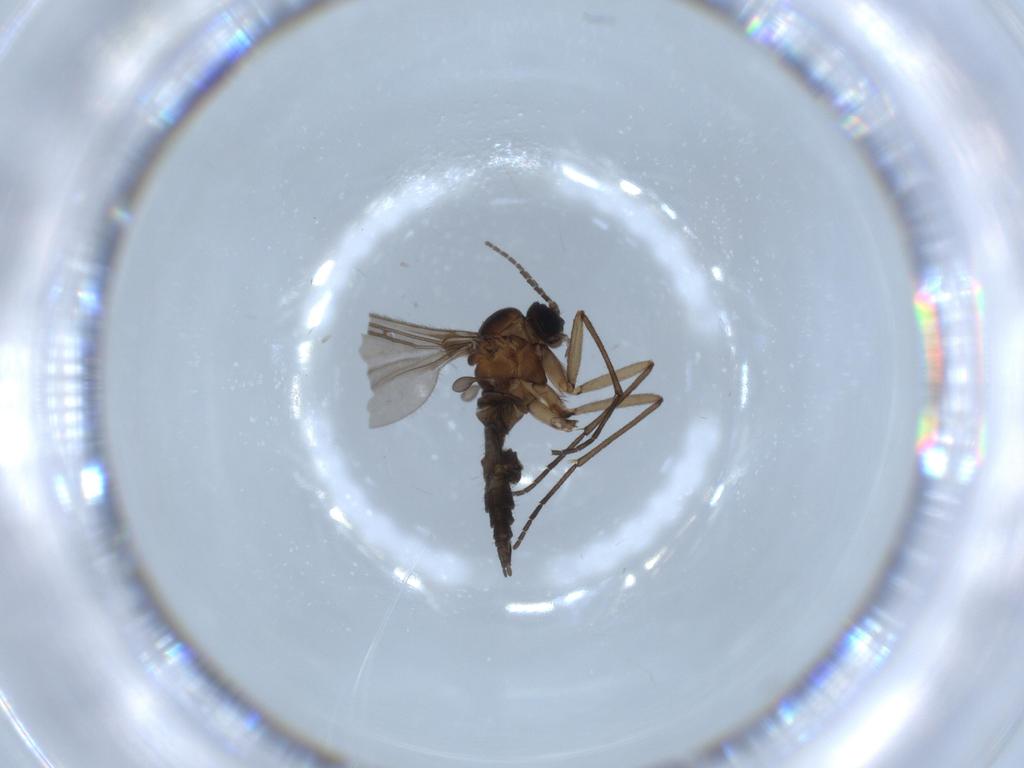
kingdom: Animalia
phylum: Arthropoda
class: Insecta
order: Diptera
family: Sciaridae
